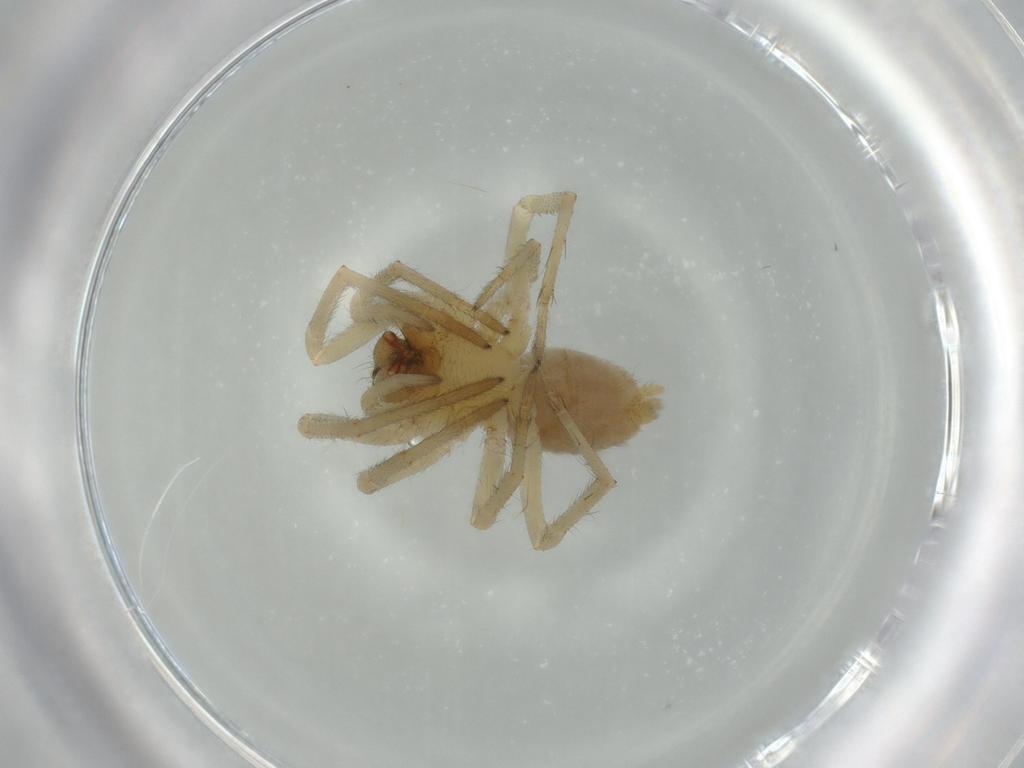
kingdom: Animalia
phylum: Arthropoda
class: Arachnida
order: Araneae
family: Cheiracanthiidae
